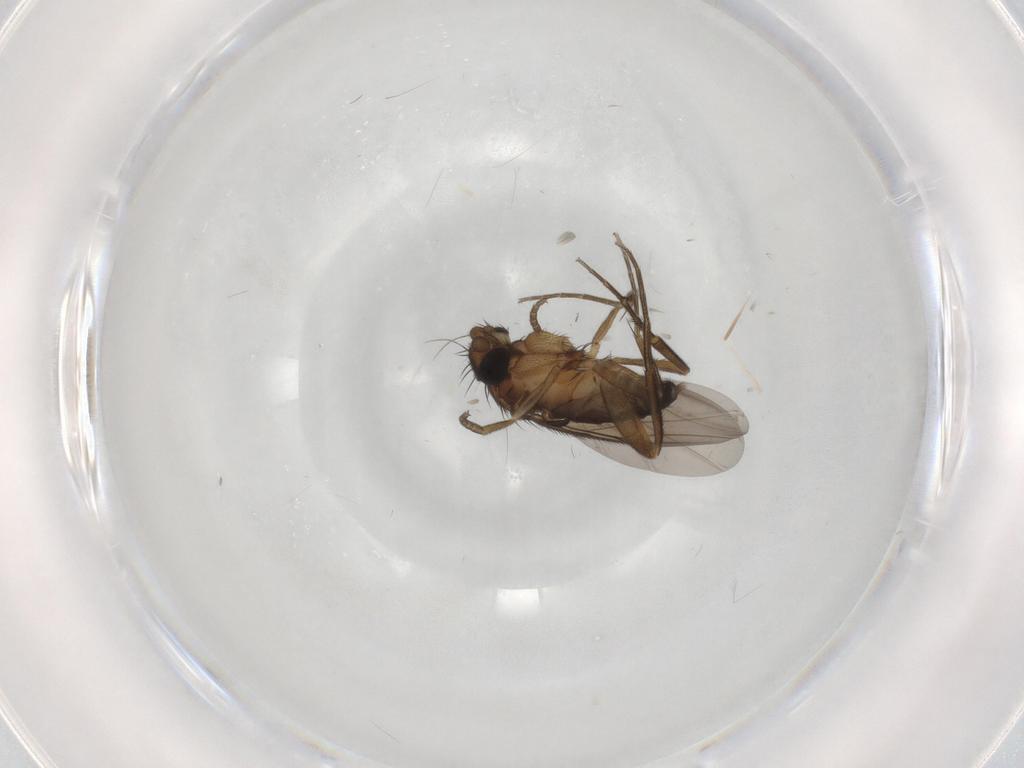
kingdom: Animalia
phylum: Arthropoda
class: Insecta
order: Diptera
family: Phoridae
